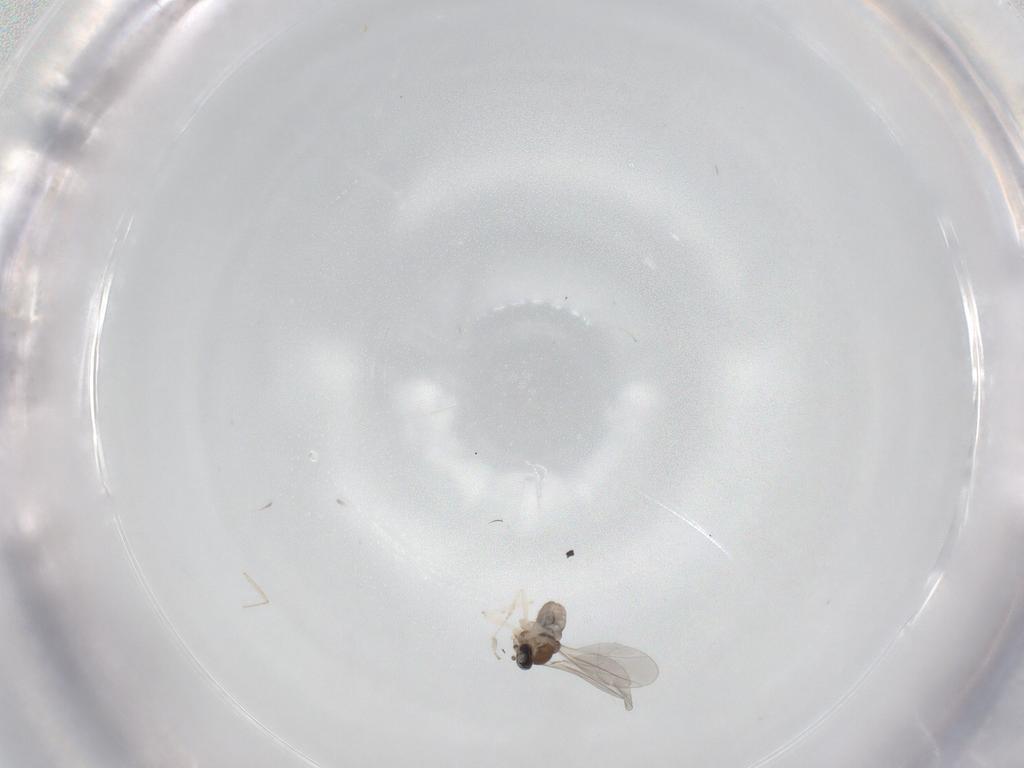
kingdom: Animalia
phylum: Arthropoda
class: Insecta
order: Diptera
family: Cecidomyiidae
